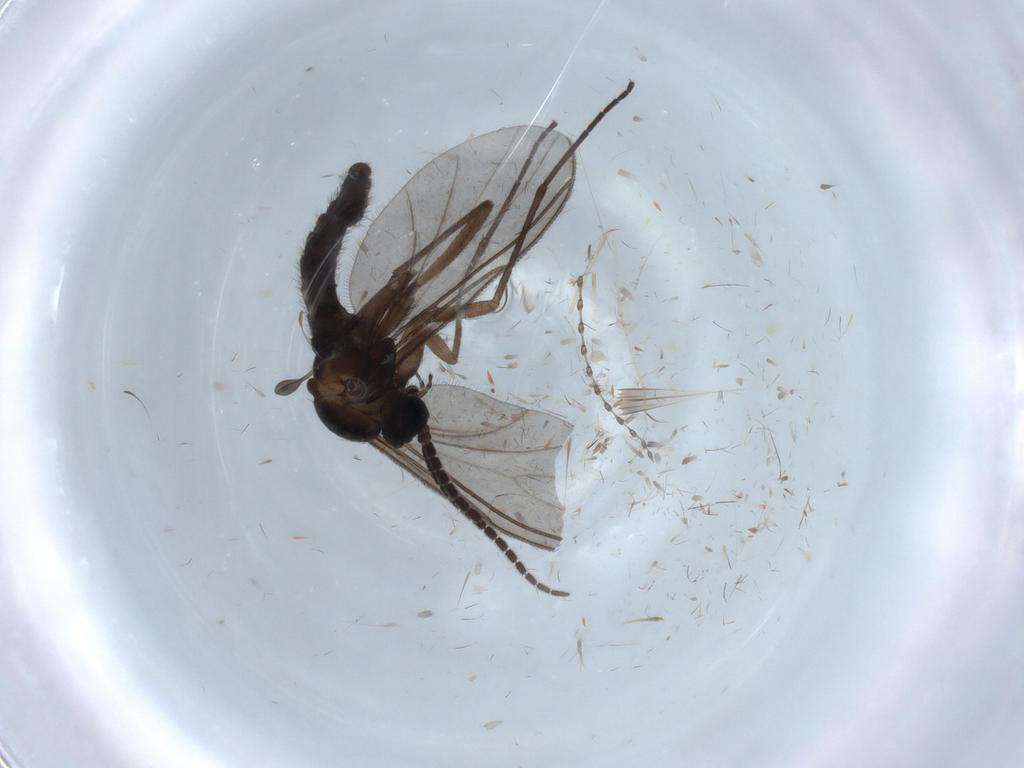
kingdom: Animalia
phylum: Arthropoda
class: Insecta
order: Diptera
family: Sciaridae
